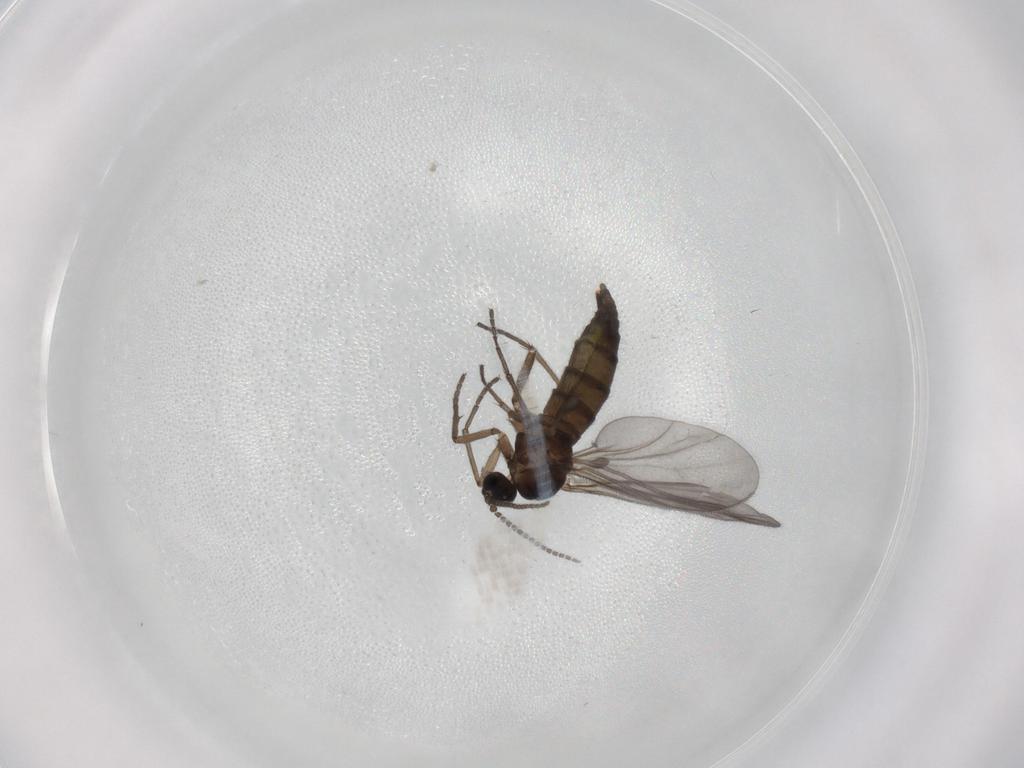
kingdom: Animalia
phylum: Arthropoda
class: Insecta
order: Diptera
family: Sciaridae
